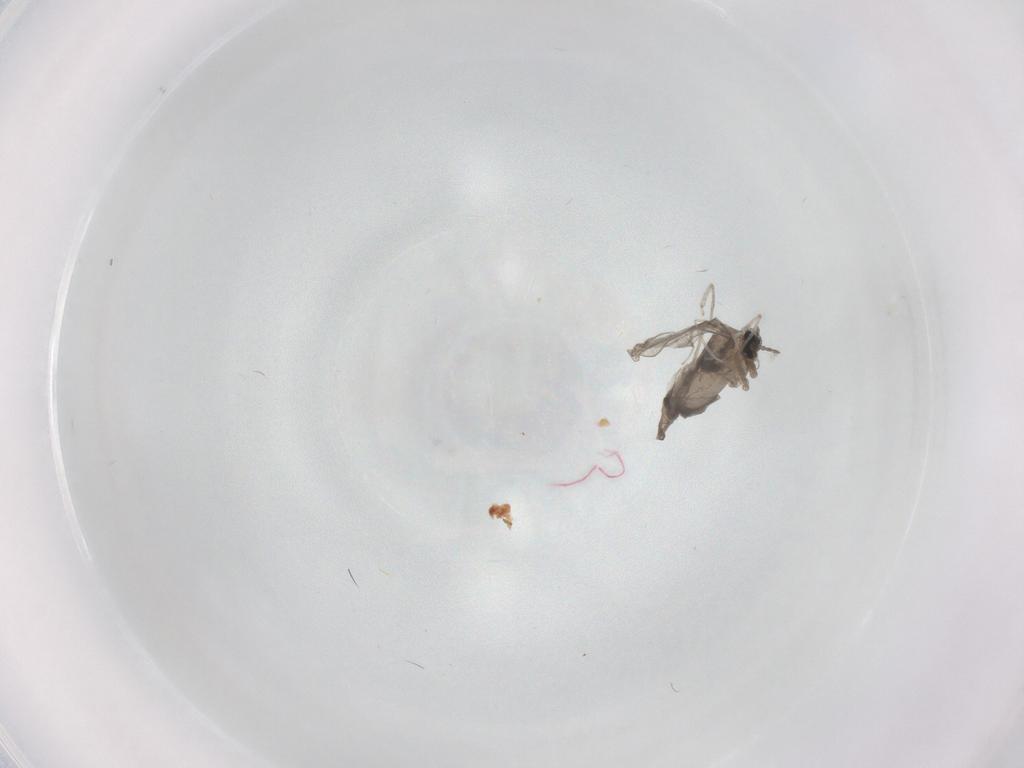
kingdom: Animalia
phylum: Arthropoda
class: Insecta
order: Diptera
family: Cecidomyiidae
